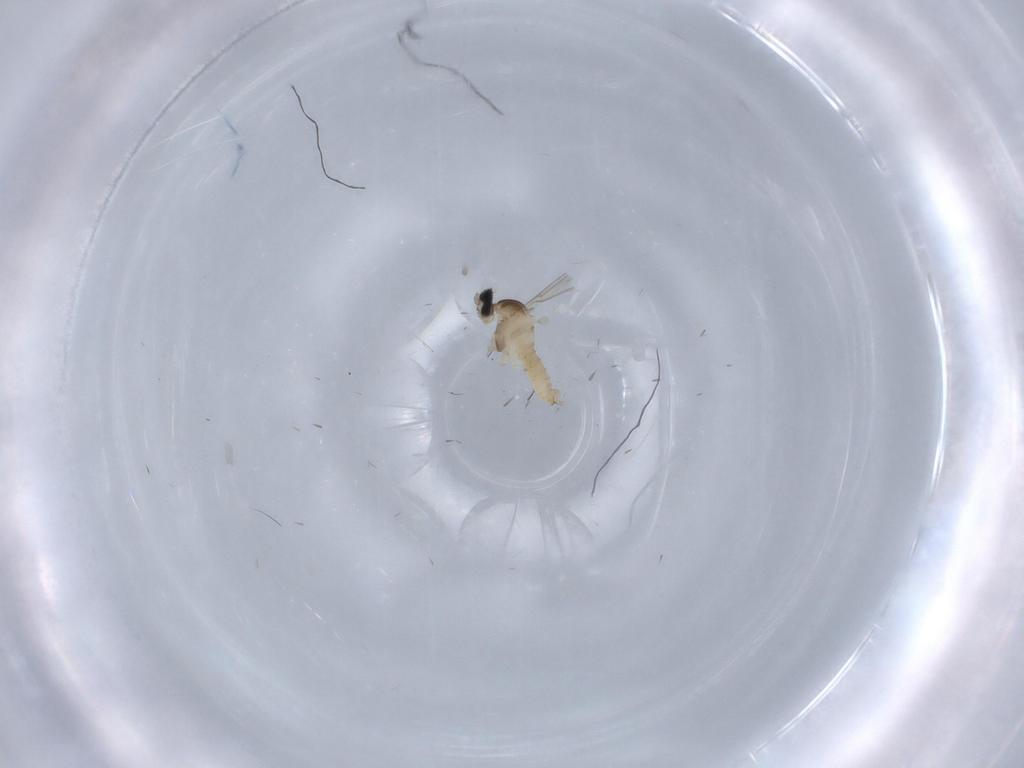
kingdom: Animalia
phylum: Arthropoda
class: Insecta
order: Diptera
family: Cecidomyiidae
